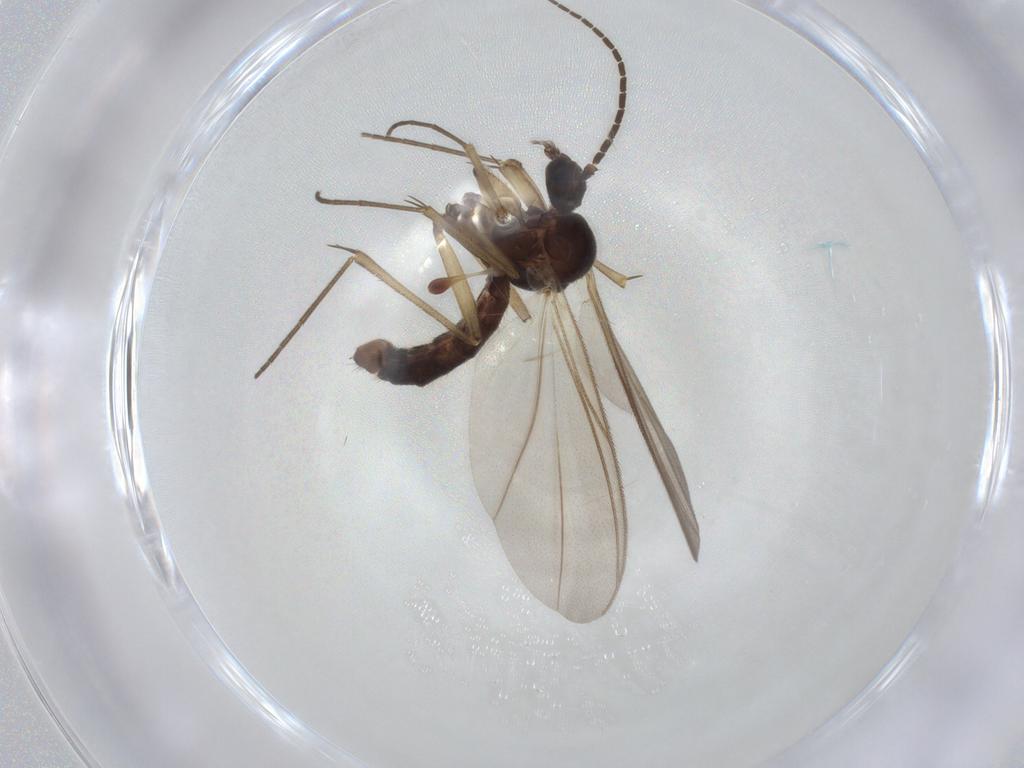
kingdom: Animalia
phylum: Arthropoda
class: Insecta
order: Diptera
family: Mycetophilidae
